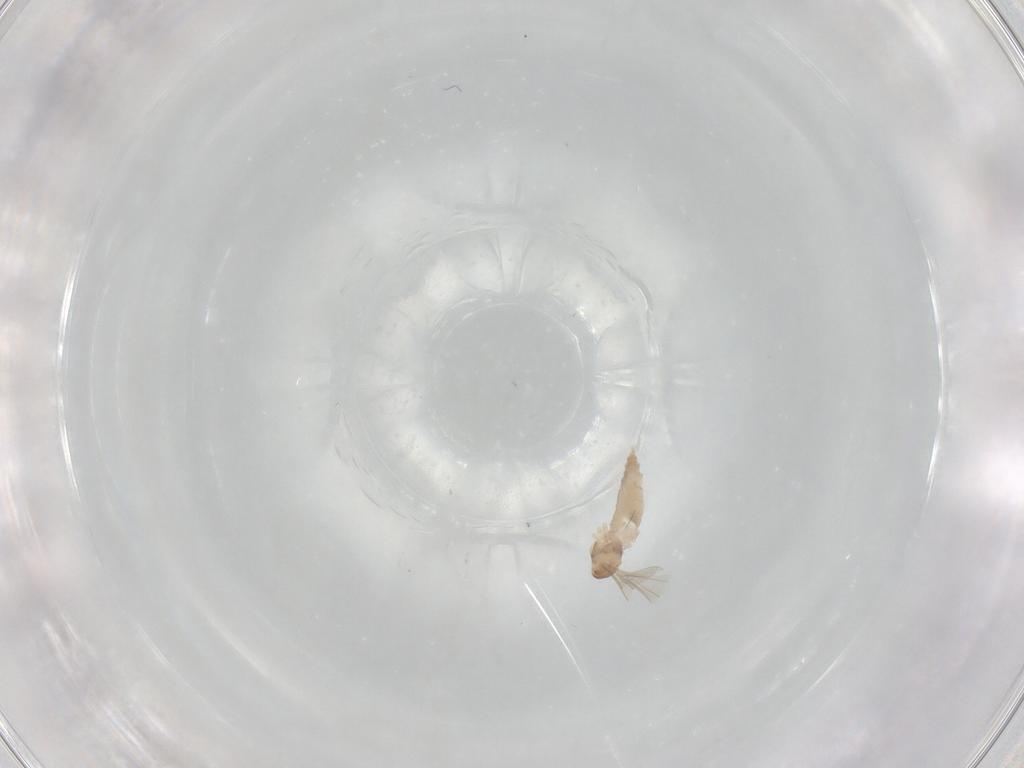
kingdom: Animalia
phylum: Arthropoda
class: Insecta
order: Diptera
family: Cecidomyiidae
